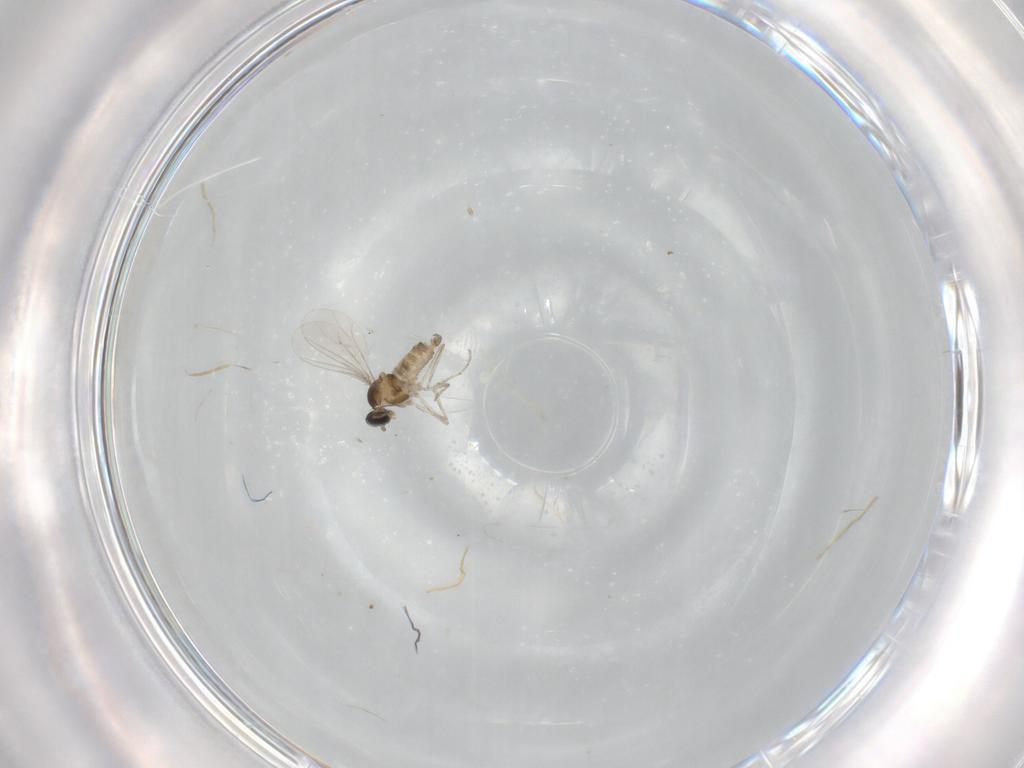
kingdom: Animalia
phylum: Arthropoda
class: Insecta
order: Diptera
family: Cecidomyiidae
